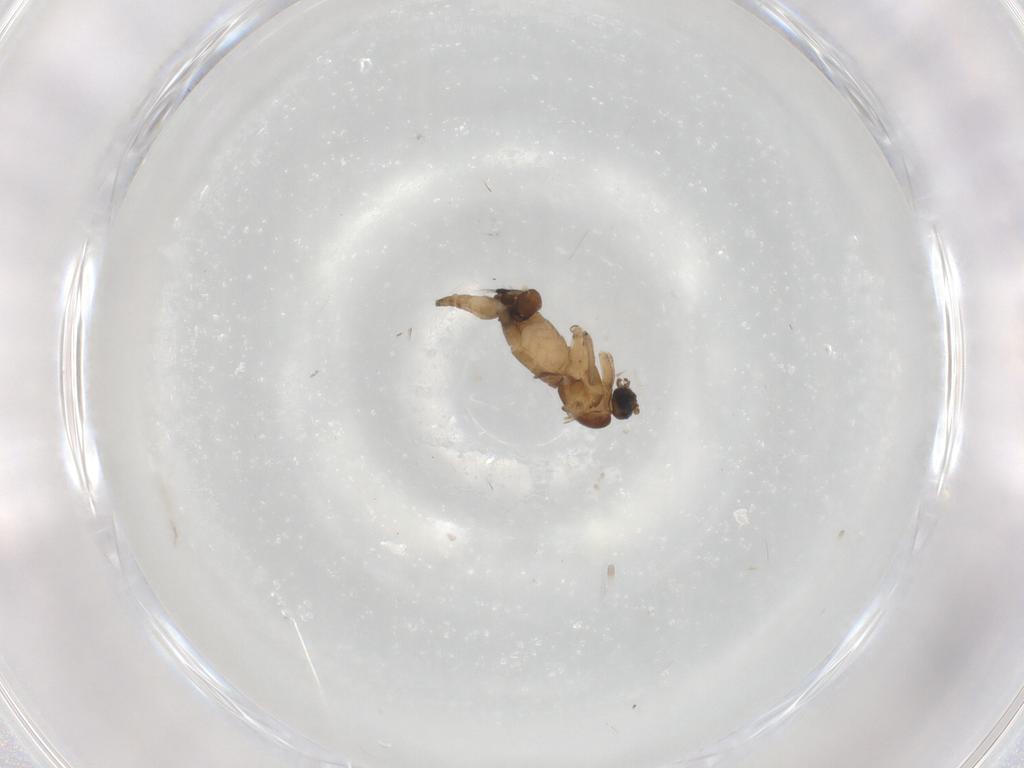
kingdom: Animalia
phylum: Arthropoda
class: Insecta
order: Diptera
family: Sciaridae
